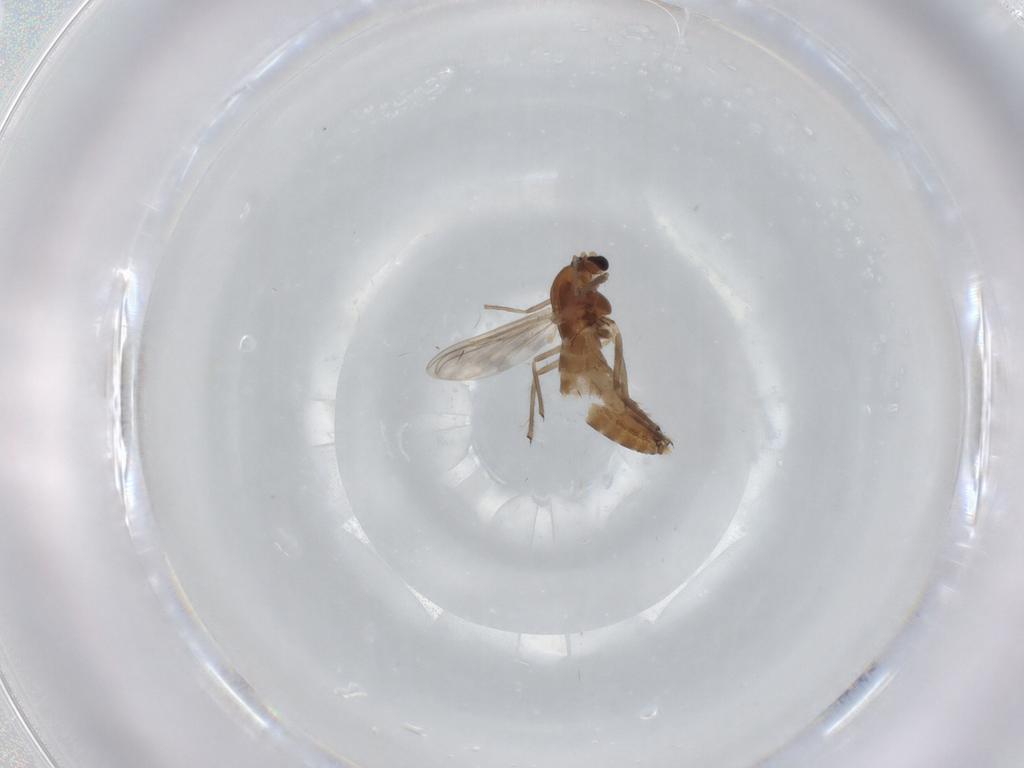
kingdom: Animalia
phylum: Arthropoda
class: Insecta
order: Diptera
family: Chironomidae
